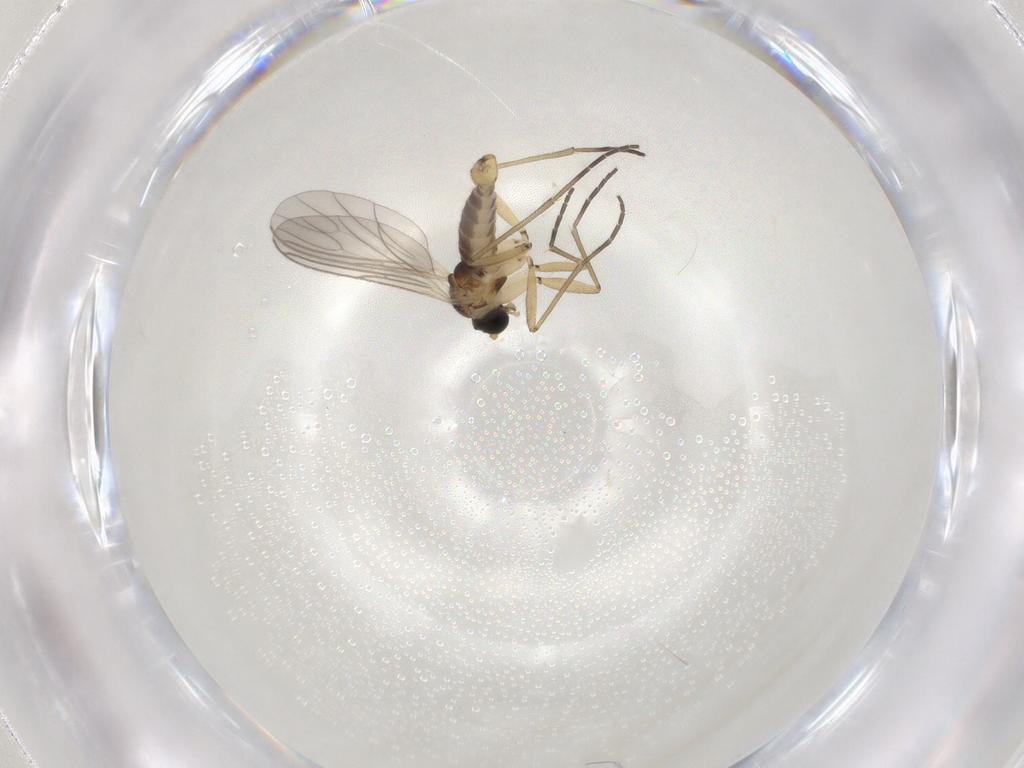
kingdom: Animalia
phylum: Arthropoda
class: Insecta
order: Diptera
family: Chironomidae
